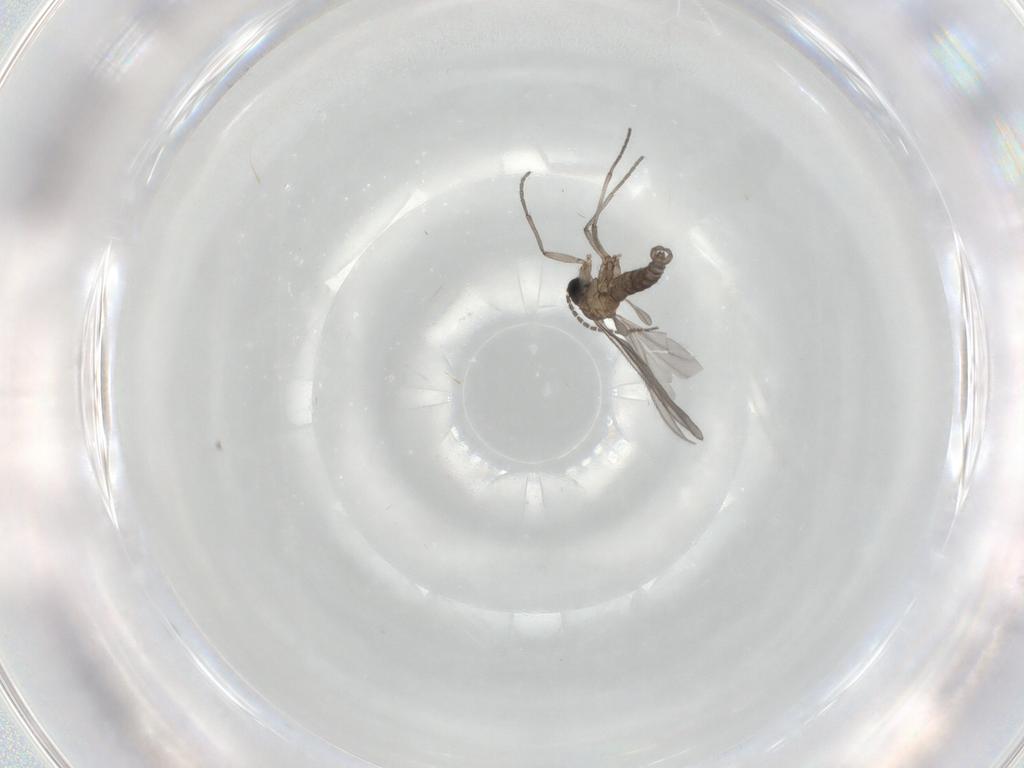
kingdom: Animalia
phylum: Arthropoda
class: Insecta
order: Diptera
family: Sciaridae
